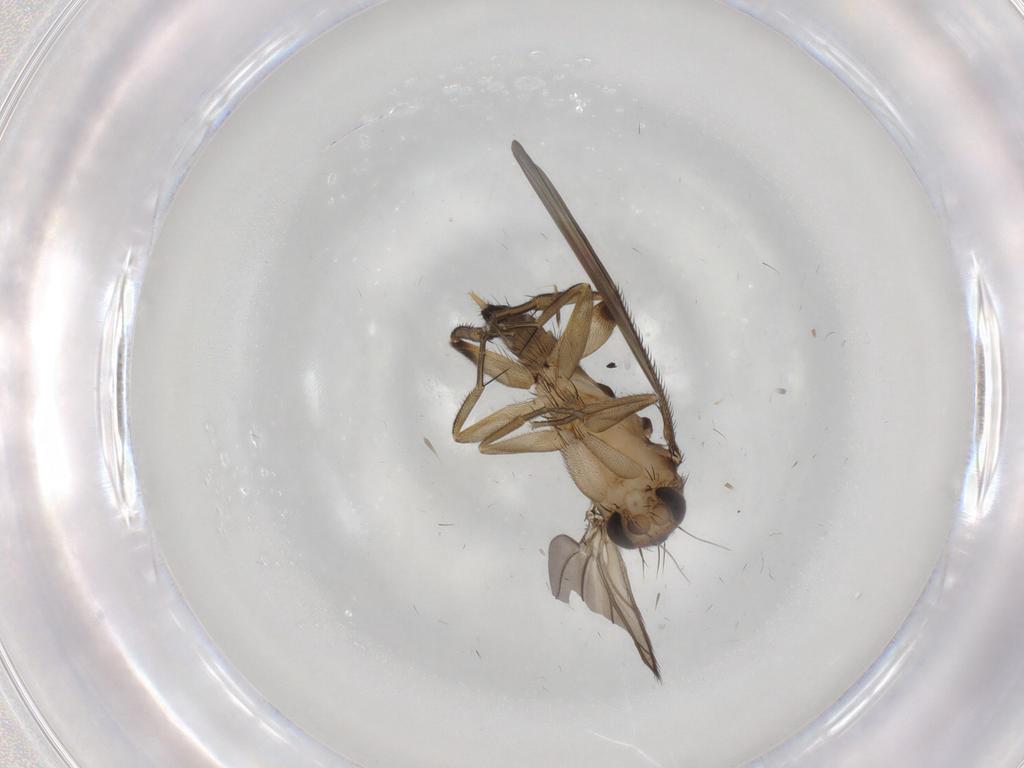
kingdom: Animalia
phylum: Arthropoda
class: Insecta
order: Diptera
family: Phoridae
